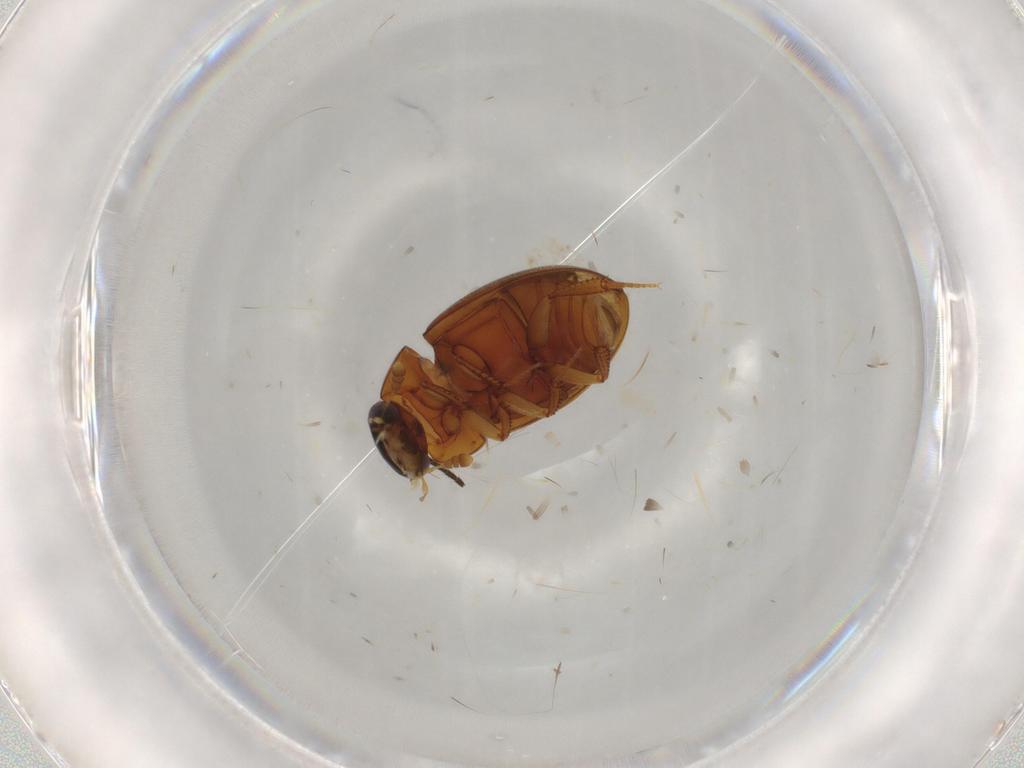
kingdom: Animalia
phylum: Arthropoda
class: Insecta
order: Coleoptera
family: Hydrophilidae
